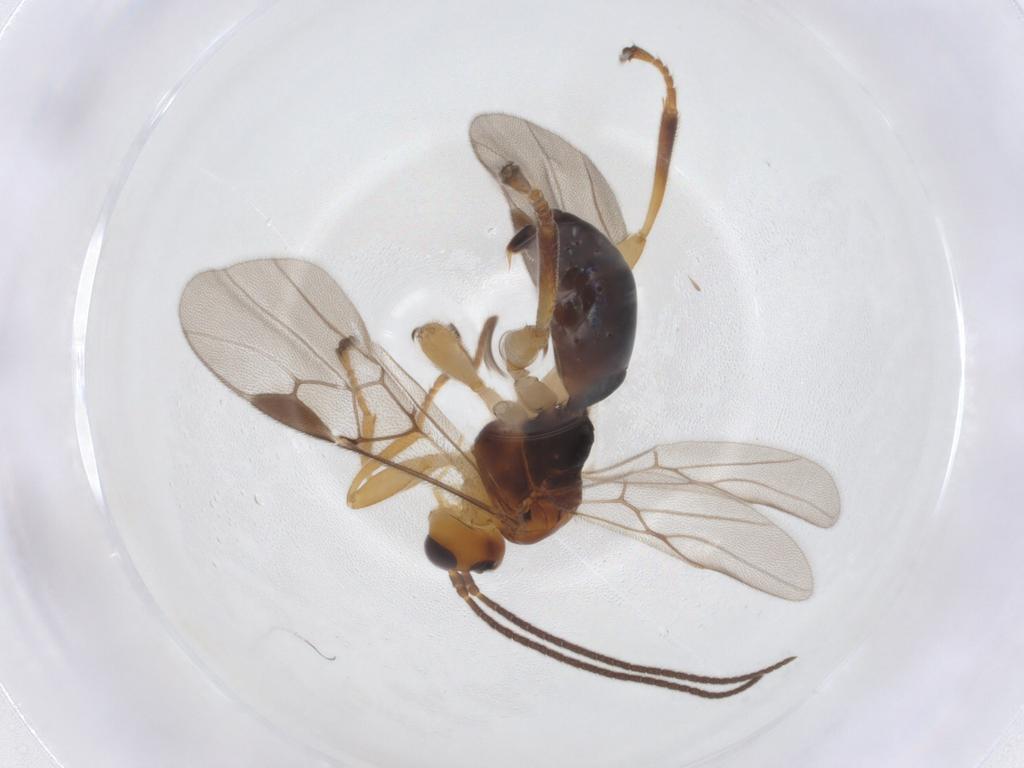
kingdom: Animalia
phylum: Arthropoda
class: Insecta
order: Hymenoptera
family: Braconidae
